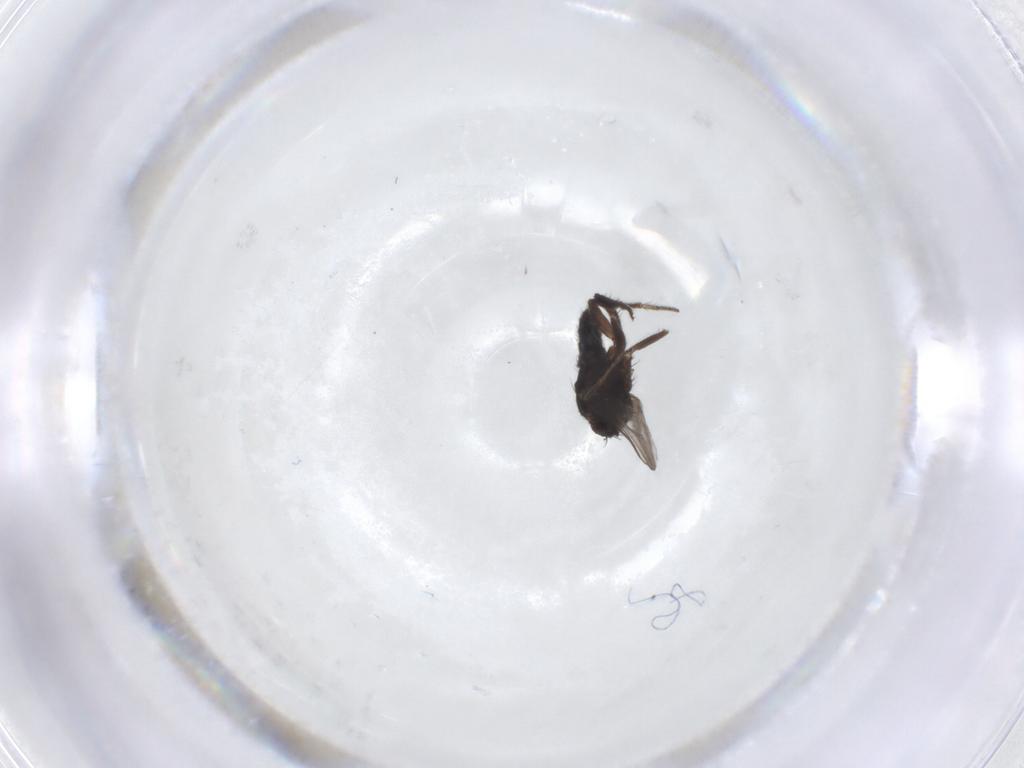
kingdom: Animalia
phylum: Arthropoda
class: Insecta
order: Diptera
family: Dolichopodidae
